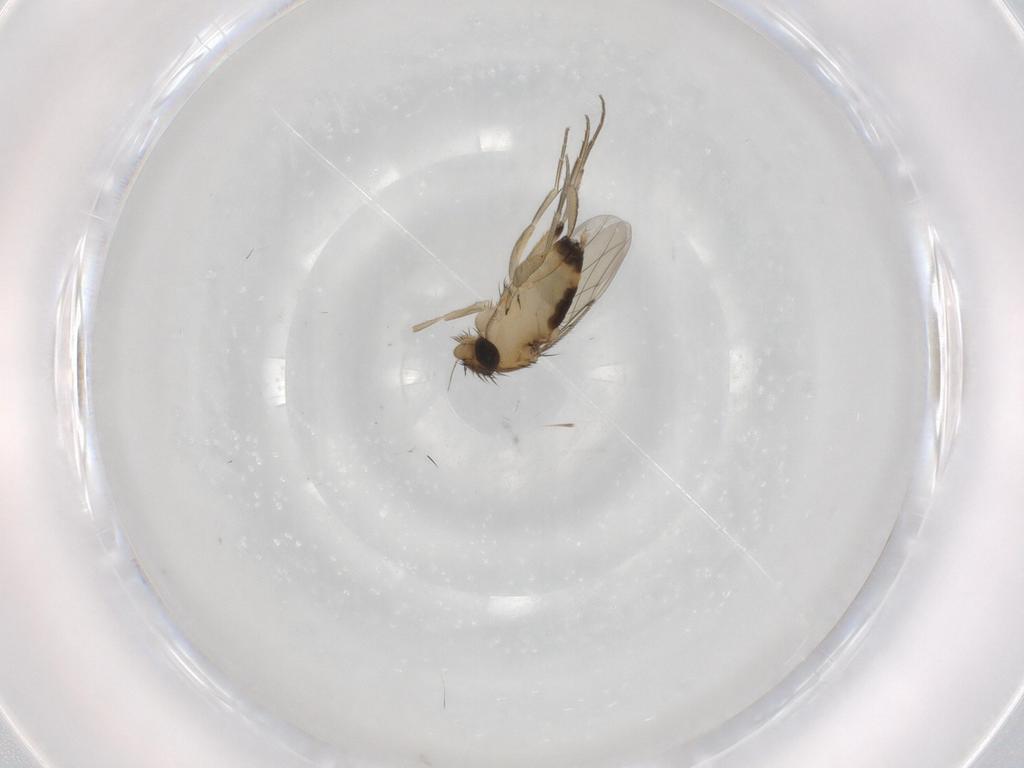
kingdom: Animalia
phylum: Arthropoda
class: Insecta
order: Diptera
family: Phoridae
